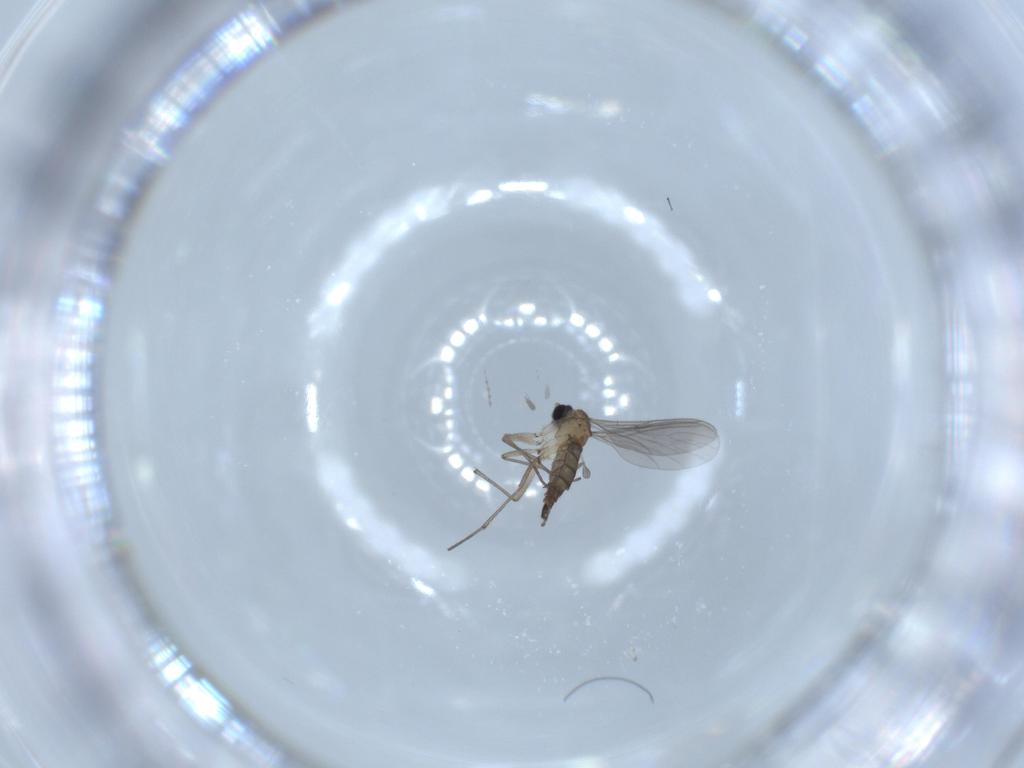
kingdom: Animalia
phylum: Arthropoda
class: Insecta
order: Diptera
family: Sciaridae
